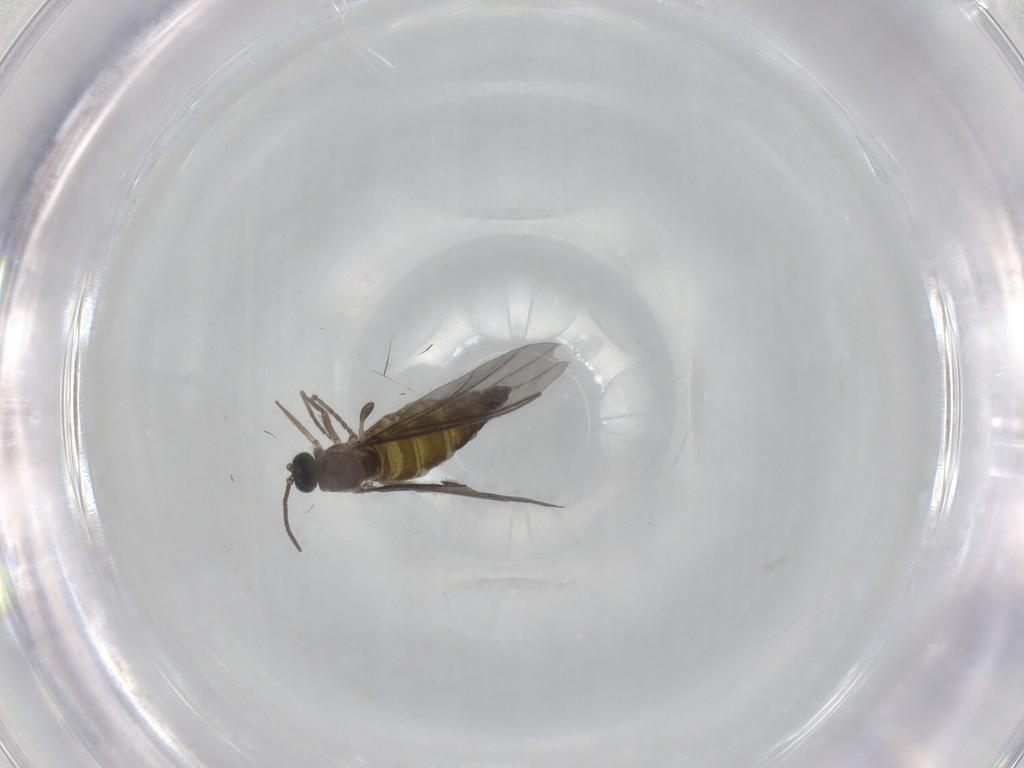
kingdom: Animalia
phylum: Arthropoda
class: Insecta
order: Diptera
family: Sciaridae
